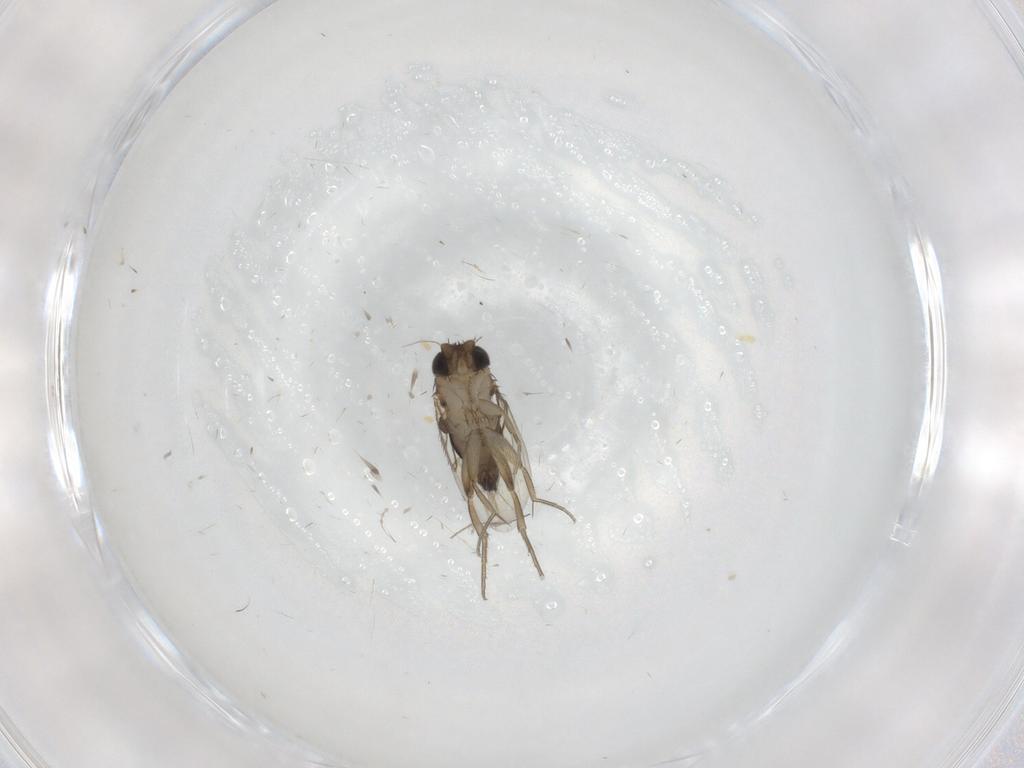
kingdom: Animalia
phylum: Arthropoda
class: Insecta
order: Diptera
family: Phoridae
